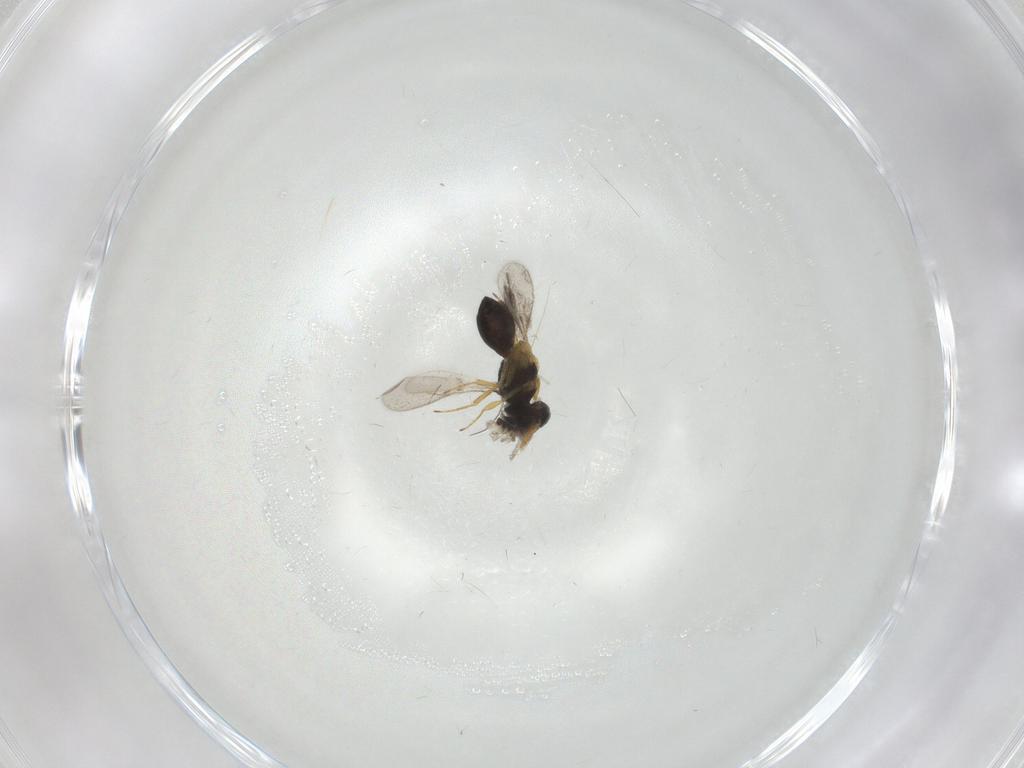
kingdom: Animalia
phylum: Arthropoda
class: Insecta
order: Hymenoptera
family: Scelionidae
